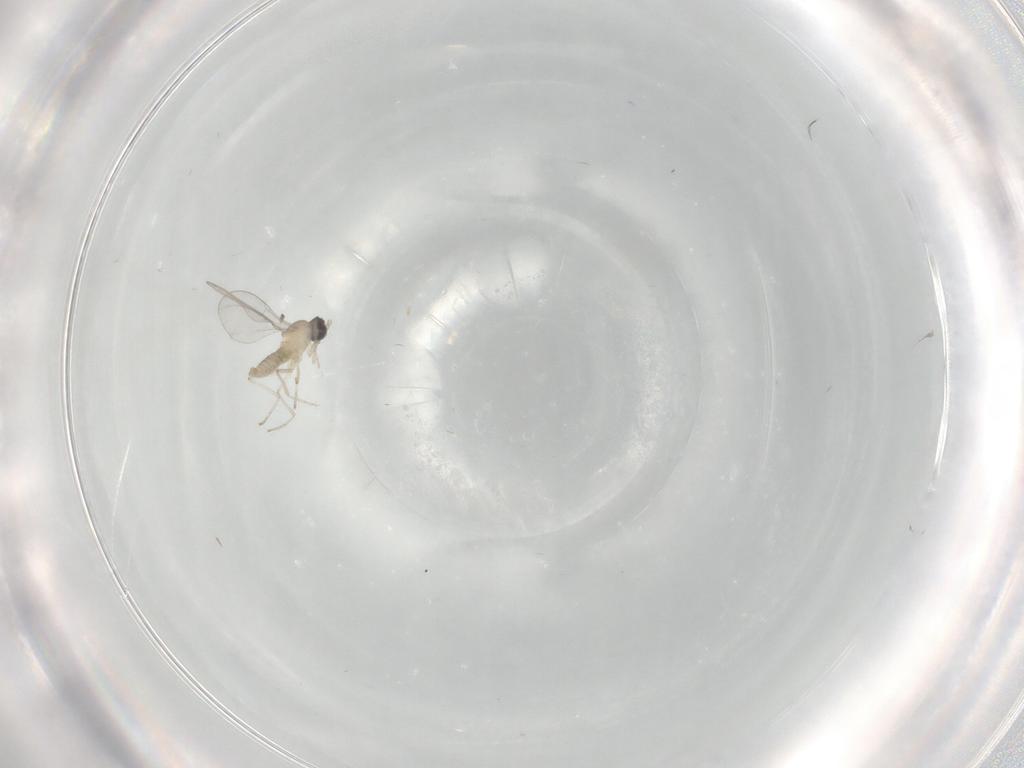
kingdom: Animalia
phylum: Arthropoda
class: Insecta
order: Diptera
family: Cecidomyiidae
